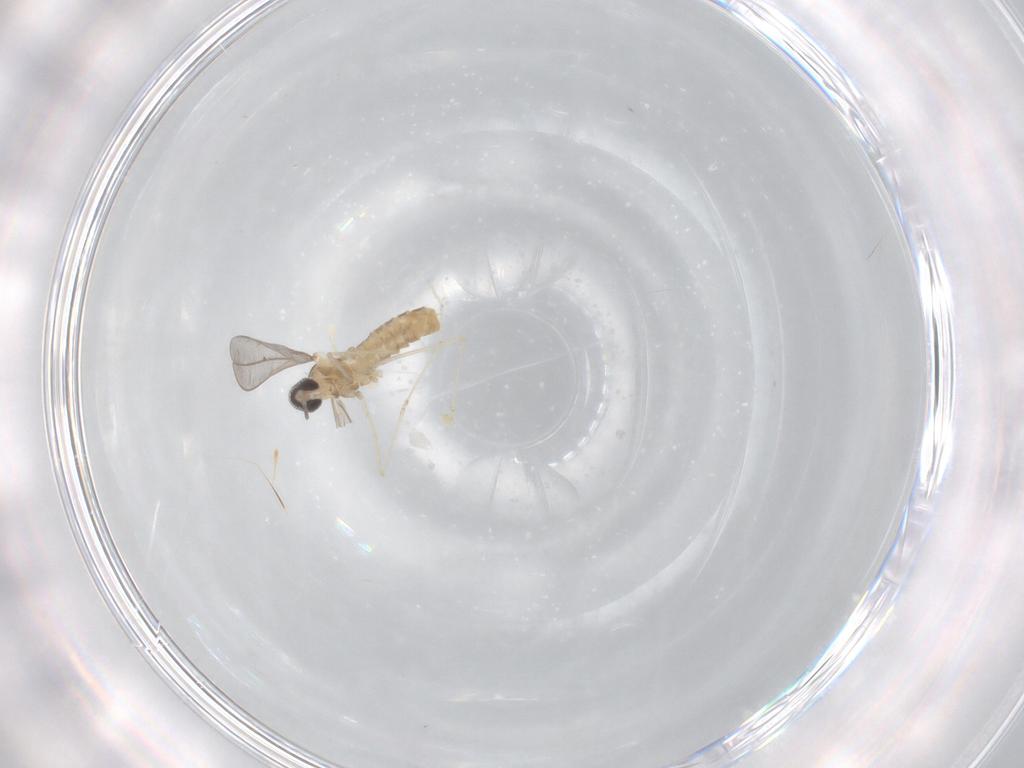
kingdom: Animalia
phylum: Arthropoda
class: Insecta
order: Diptera
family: Cecidomyiidae
